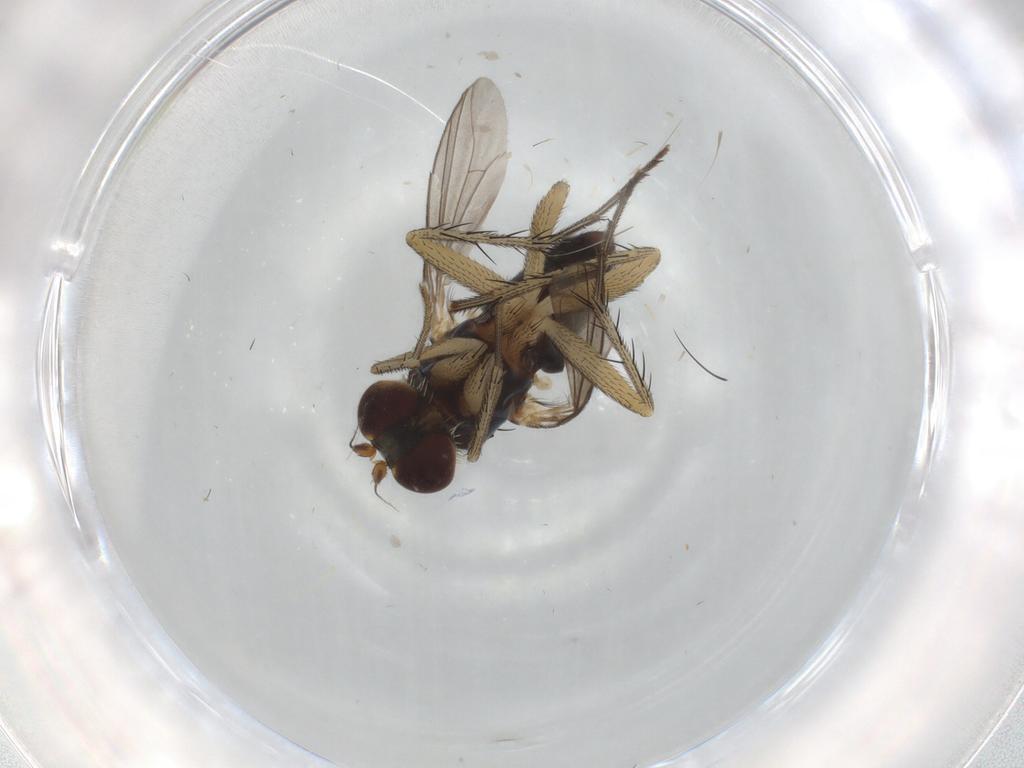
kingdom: Animalia
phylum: Arthropoda
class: Insecta
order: Diptera
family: Dolichopodidae
